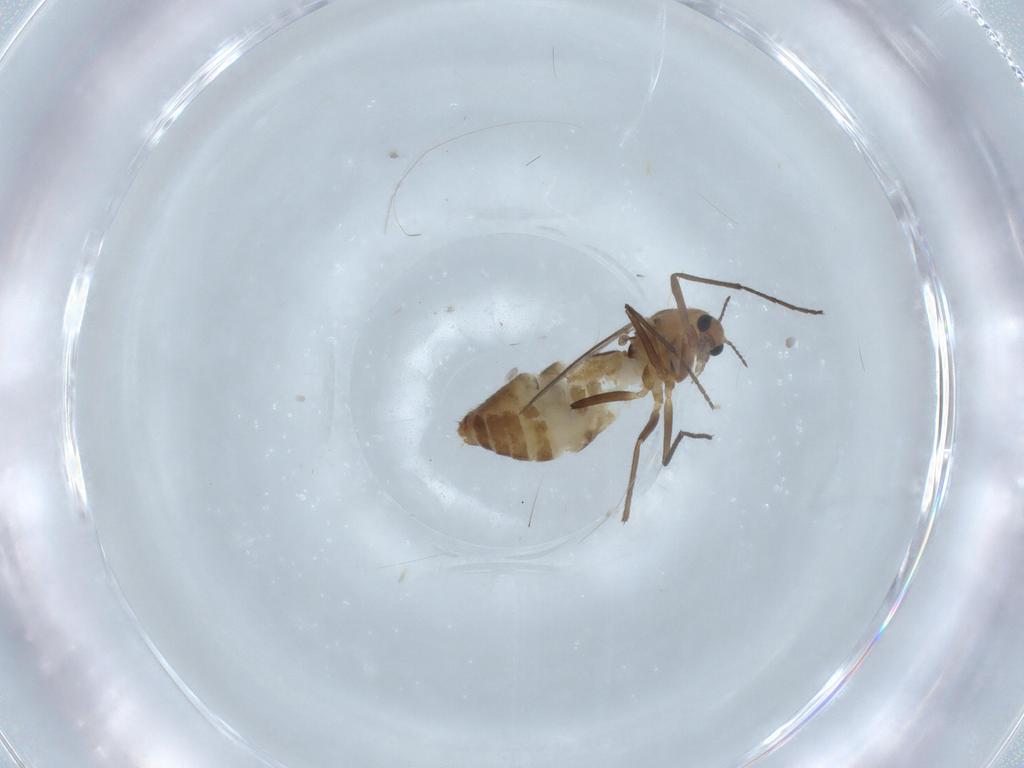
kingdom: Animalia
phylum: Arthropoda
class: Insecta
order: Diptera
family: Chironomidae
